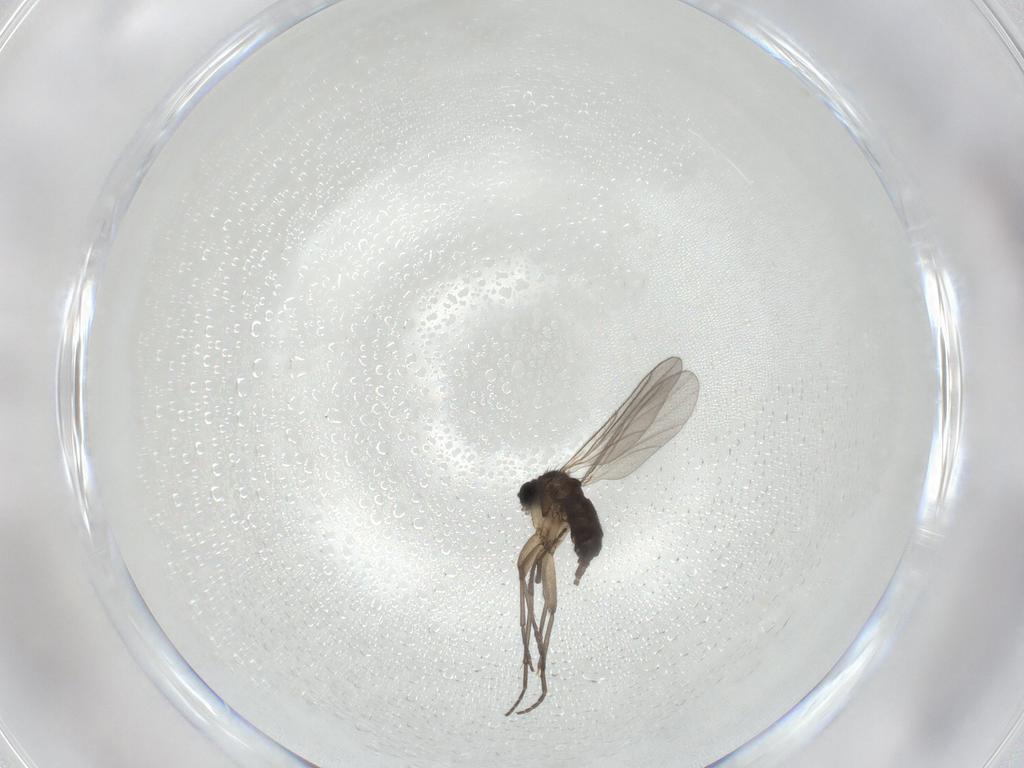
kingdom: Animalia
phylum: Arthropoda
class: Insecta
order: Diptera
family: Sciaridae
